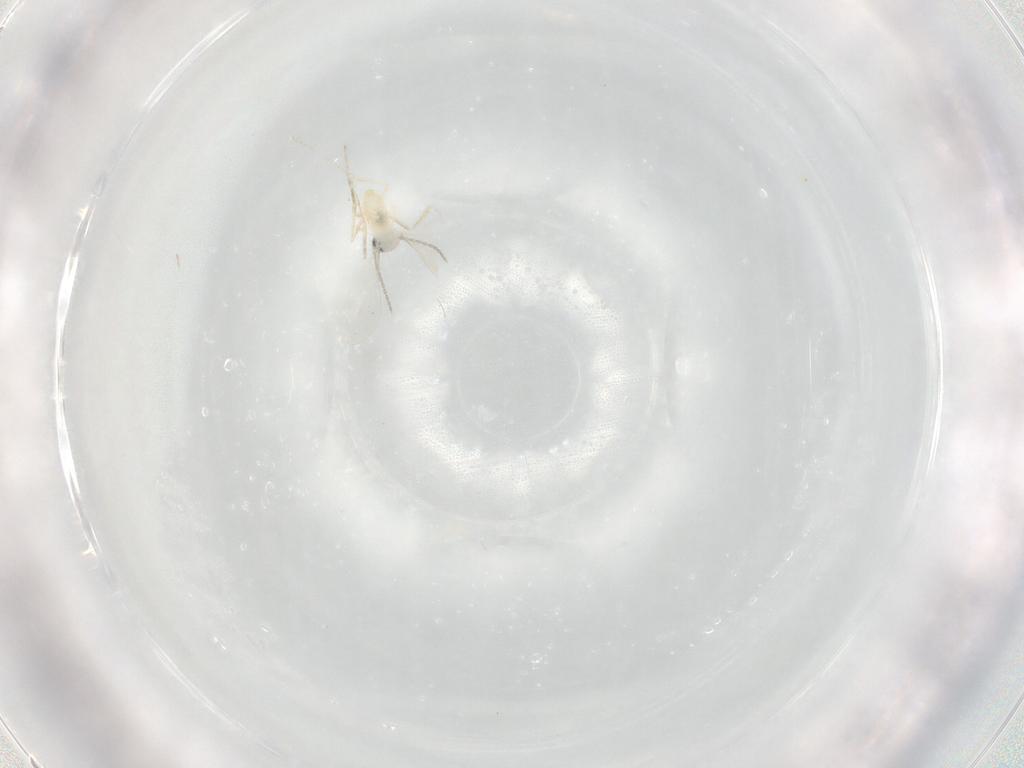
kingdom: Animalia
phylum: Arthropoda
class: Insecta
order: Diptera
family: Cecidomyiidae
